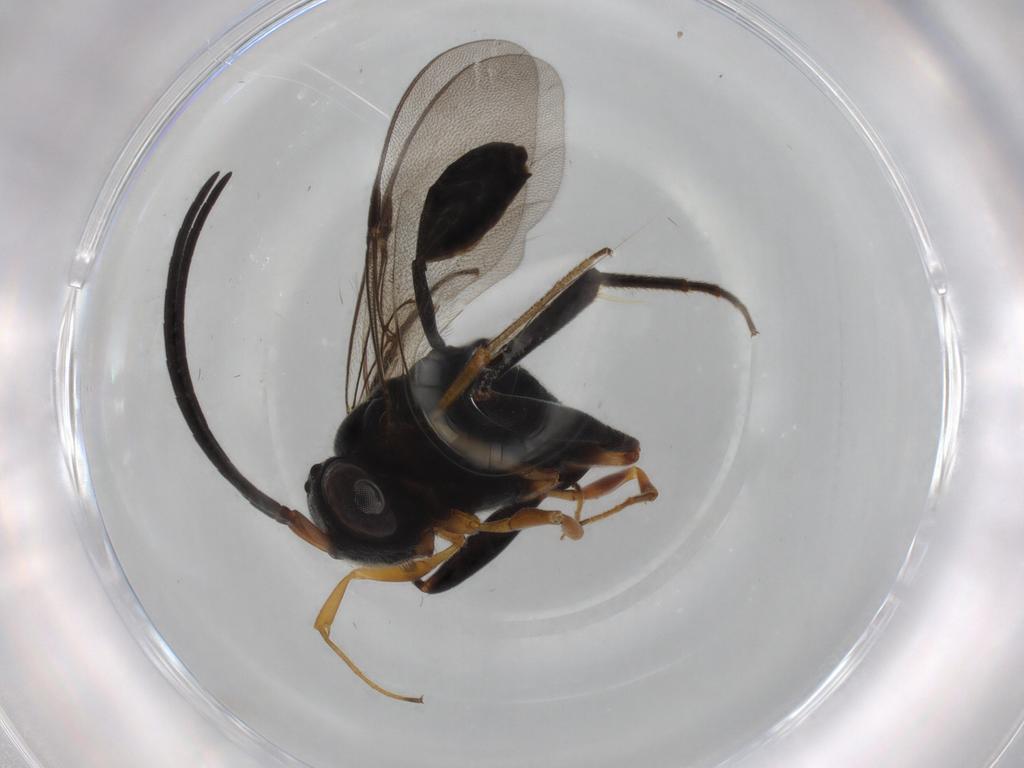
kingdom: Animalia
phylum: Arthropoda
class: Insecta
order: Hymenoptera
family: Evaniidae
